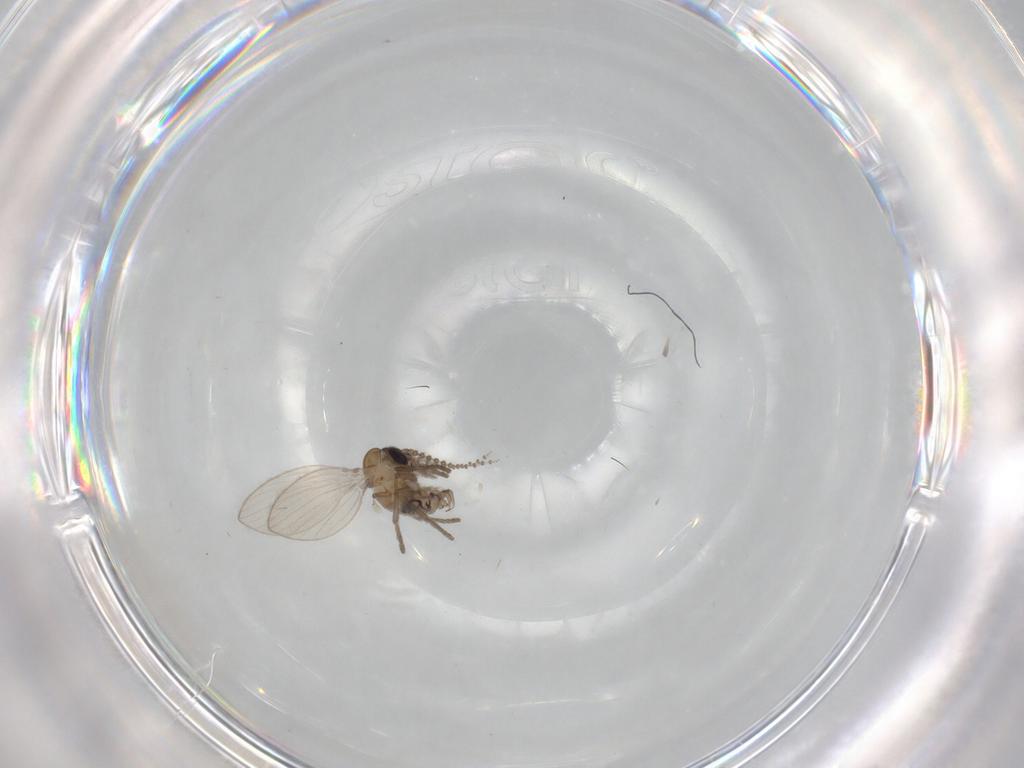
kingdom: Animalia
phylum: Arthropoda
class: Insecta
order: Diptera
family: Psychodidae
